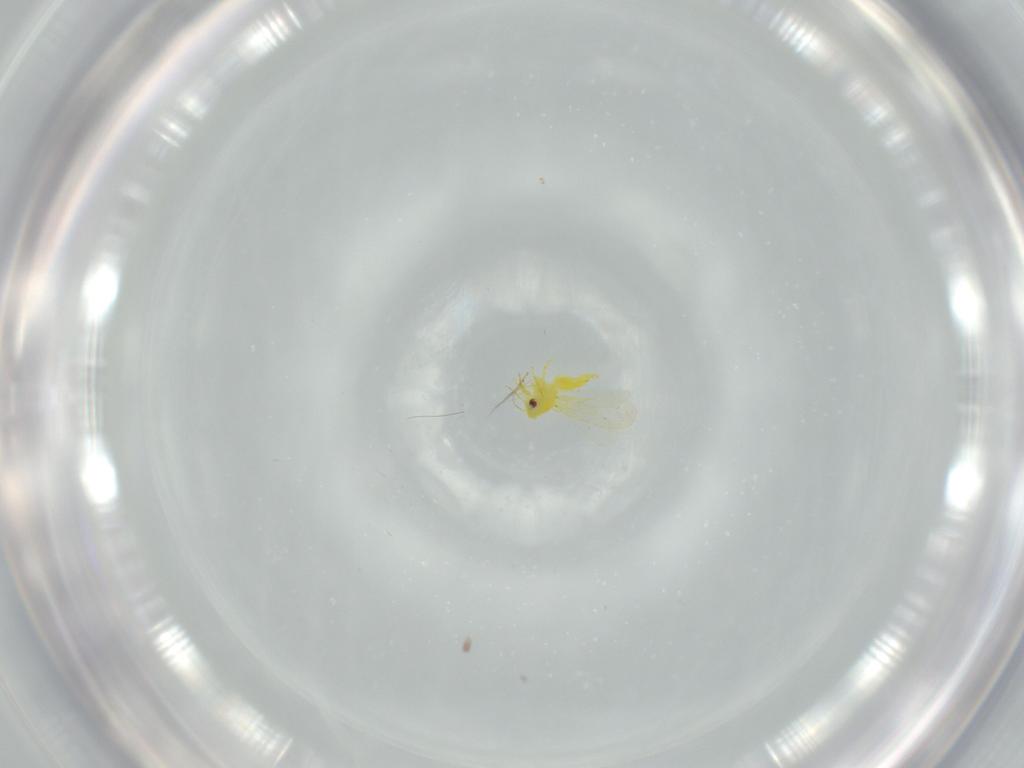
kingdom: Animalia
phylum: Arthropoda
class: Insecta
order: Hemiptera
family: Aleyrodidae
